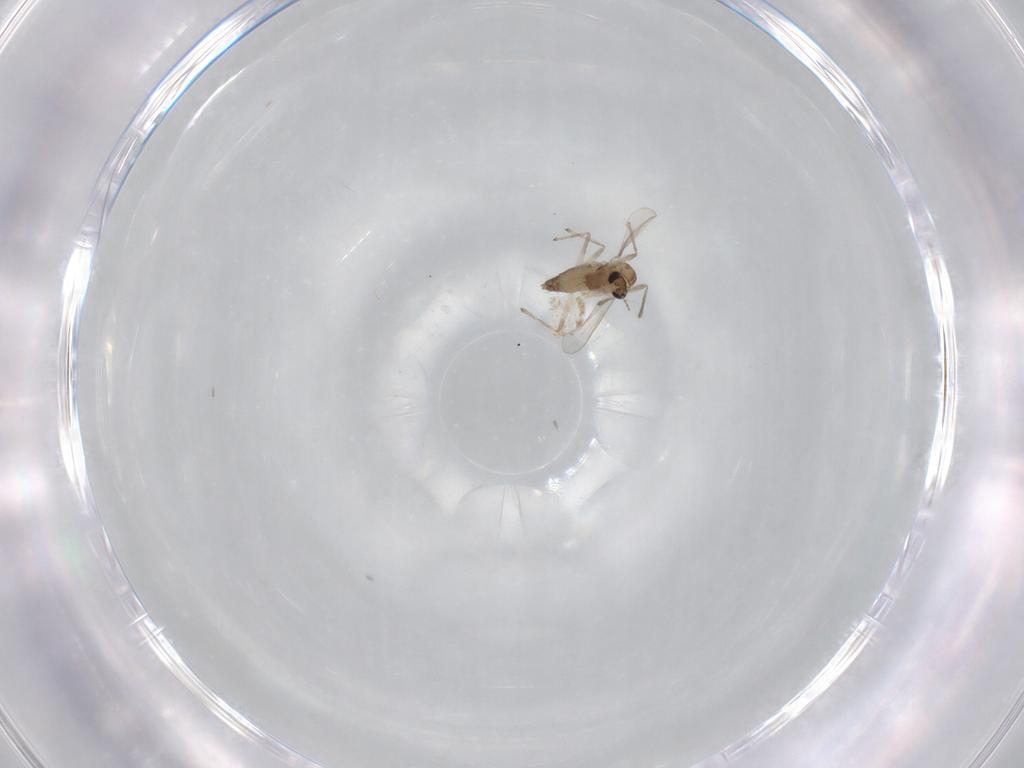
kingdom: Animalia
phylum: Arthropoda
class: Insecta
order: Diptera
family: Chironomidae
